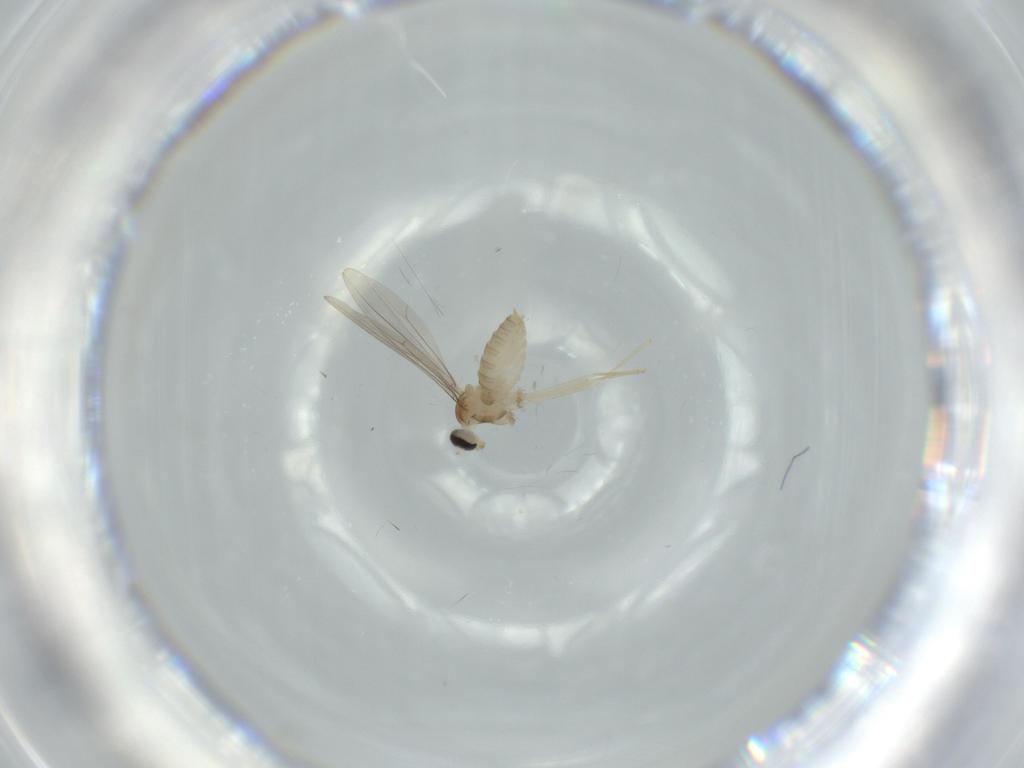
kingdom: Animalia
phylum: Arthropoda
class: Insecta
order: Diptera
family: Cecidomyiidae
